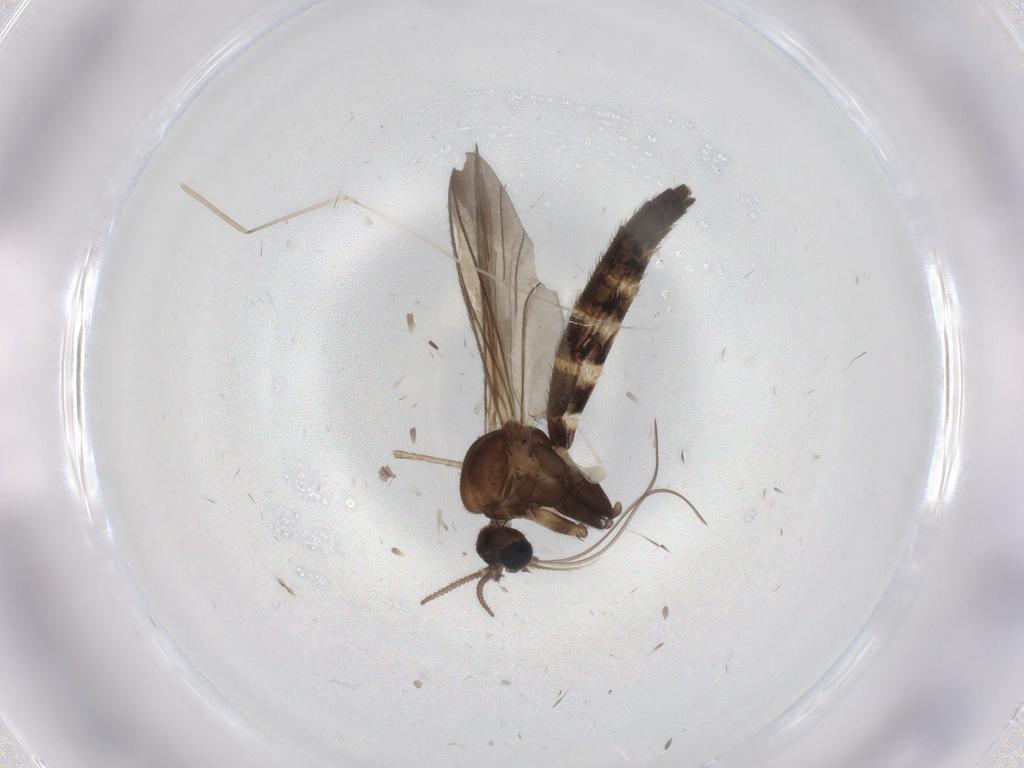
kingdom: Animalia
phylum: Arthropoda
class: Insecta
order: Diptera
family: Keroplatidae
